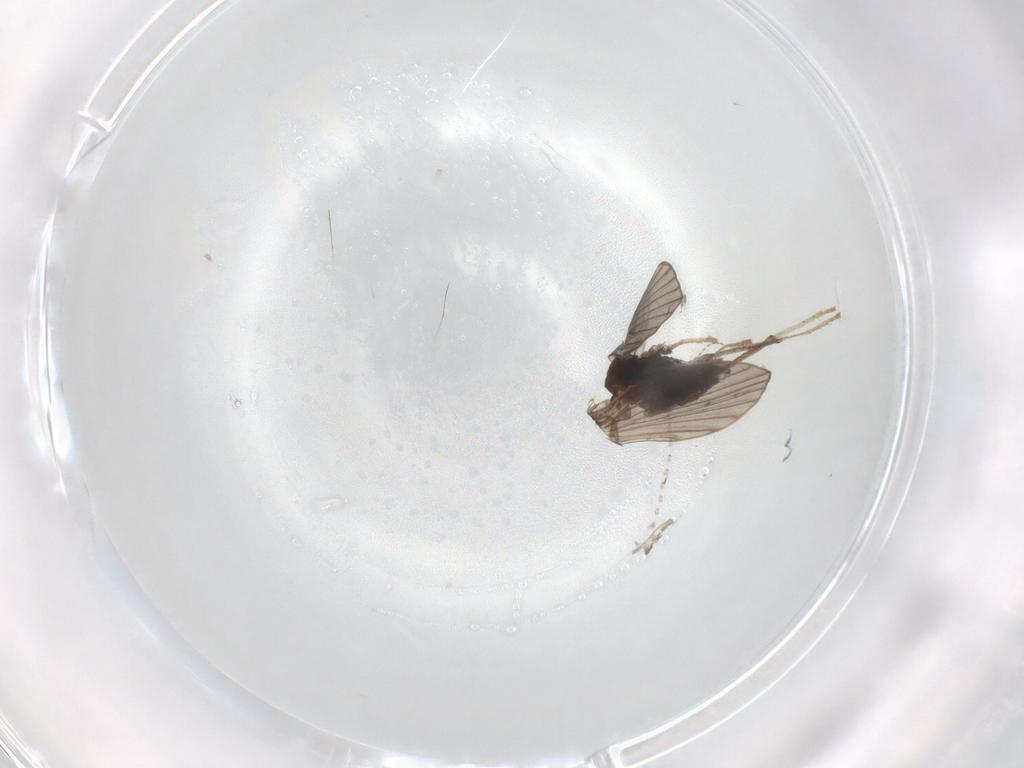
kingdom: Animalia
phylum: Arthropoda
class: Insecta
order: Diptera
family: Psychodidae
